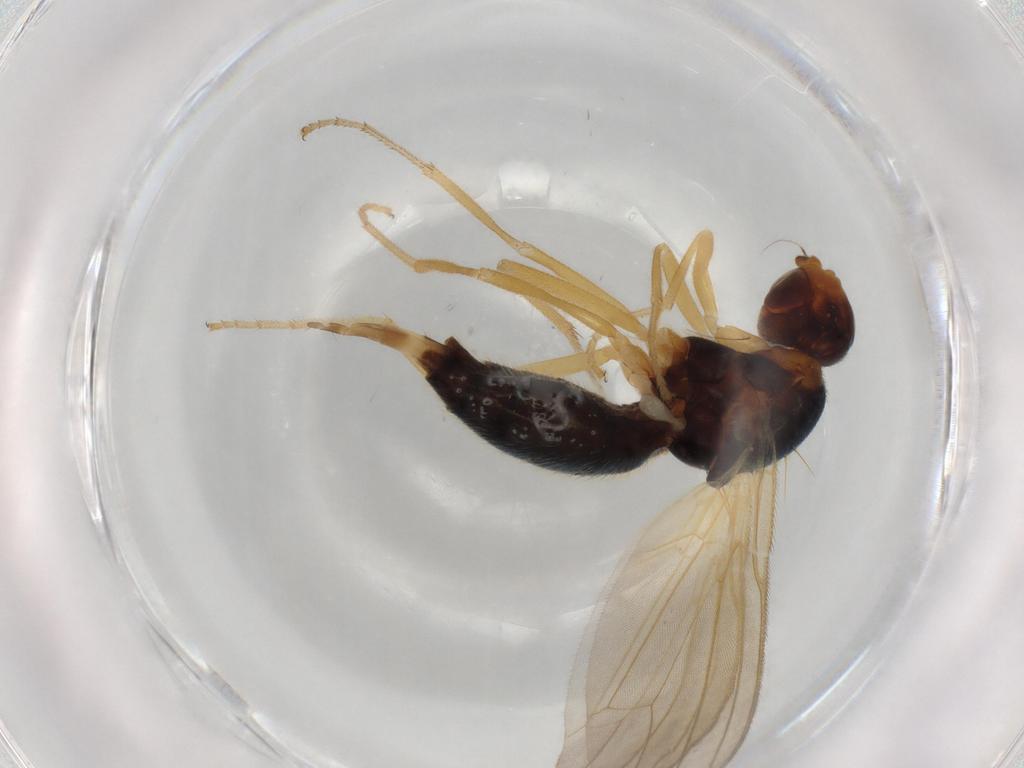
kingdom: Animalia
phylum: Arthropoda
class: Insecta
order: Diptera
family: Sepsidae
